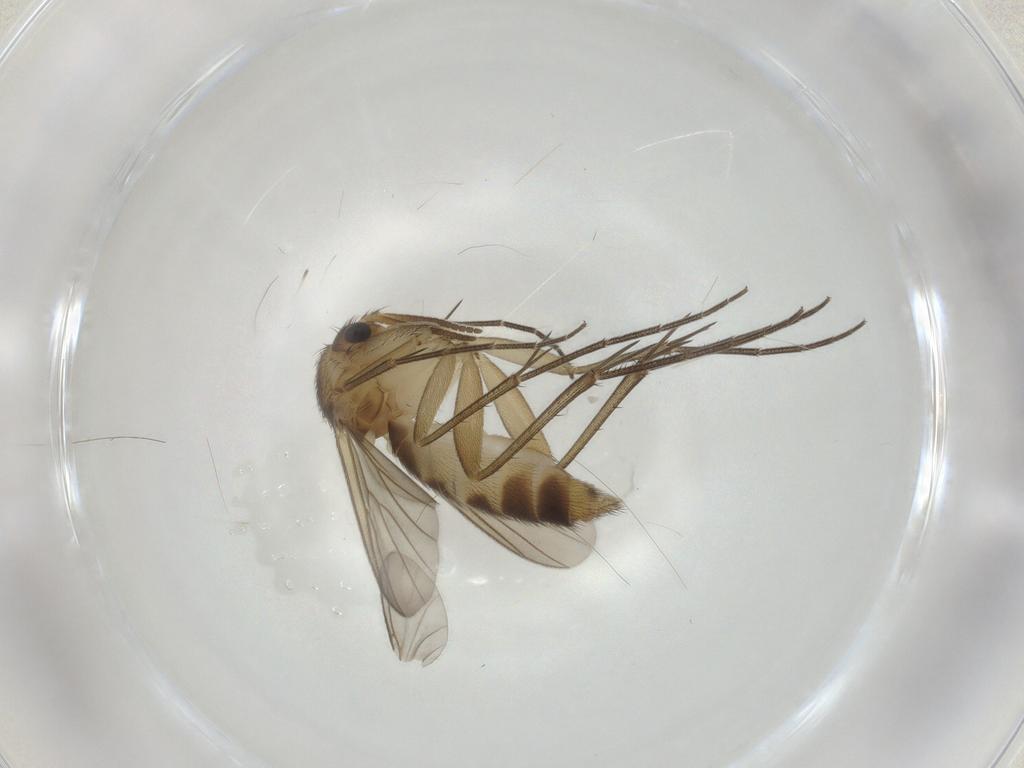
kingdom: Animalia
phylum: Arthropoda
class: Insecta
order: Diptera
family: Mycetophilidae
